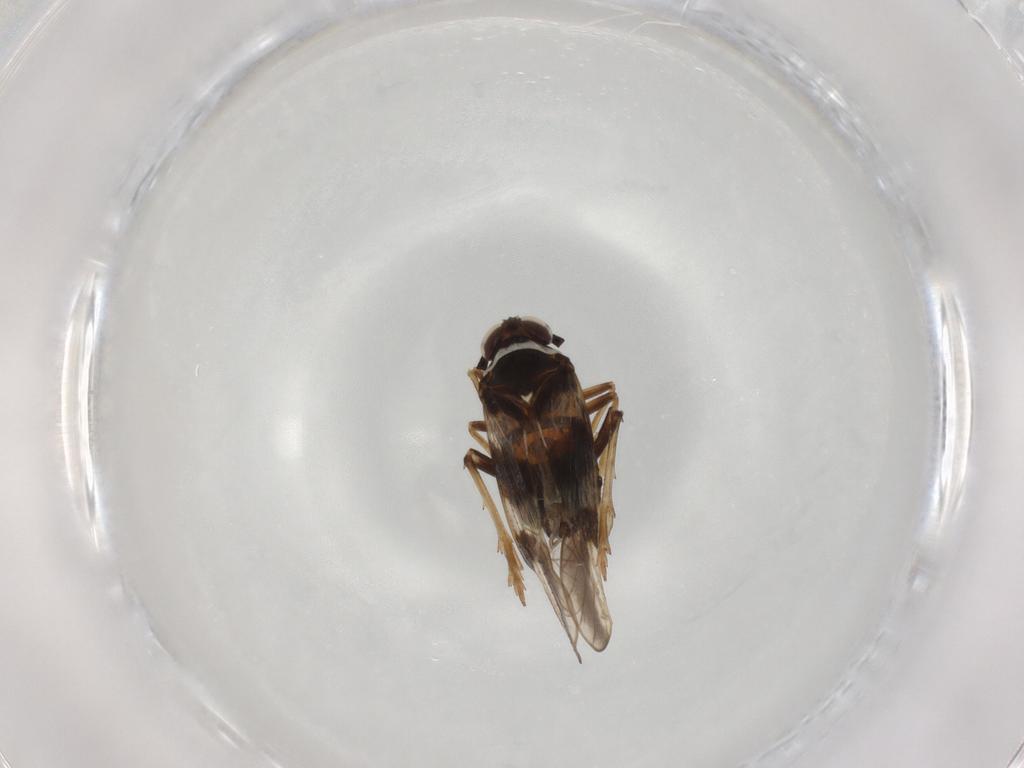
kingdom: Animalia
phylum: Arthropoda
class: Insecta
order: Hemiptera
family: Delphacidae
